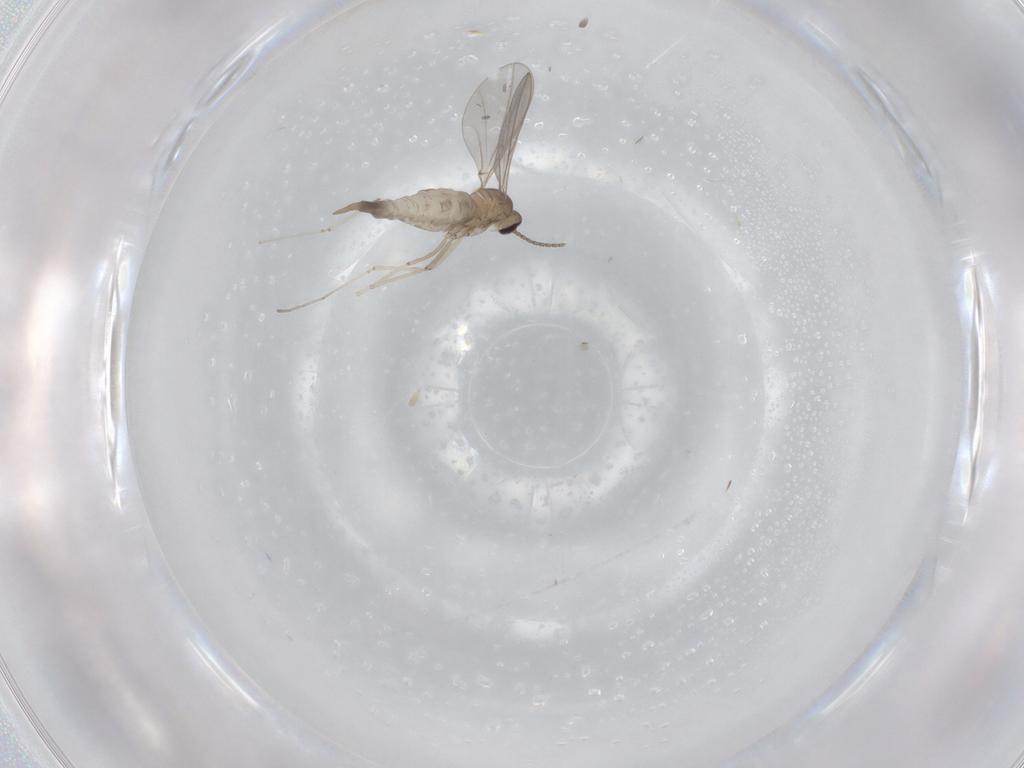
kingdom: Animalia
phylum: Arthropoda
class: Insecta
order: Diptera
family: Cecidomyiidae
